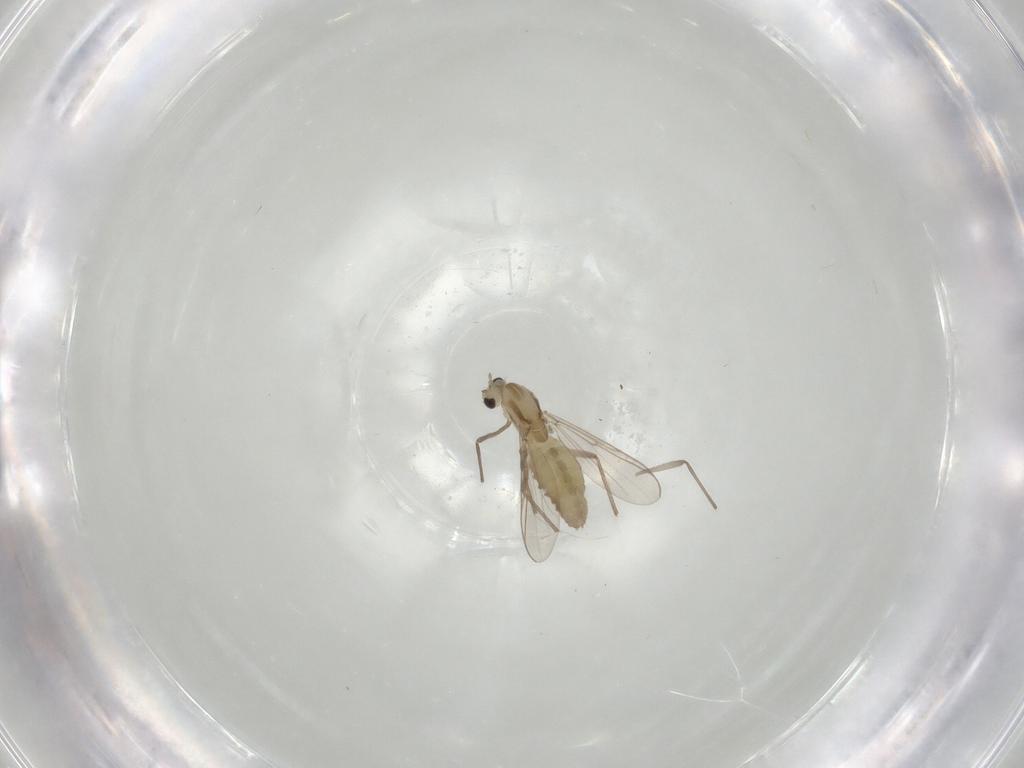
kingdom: Animalia
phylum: Arthropoda
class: Insecta
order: Diptera
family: Chironomidae
